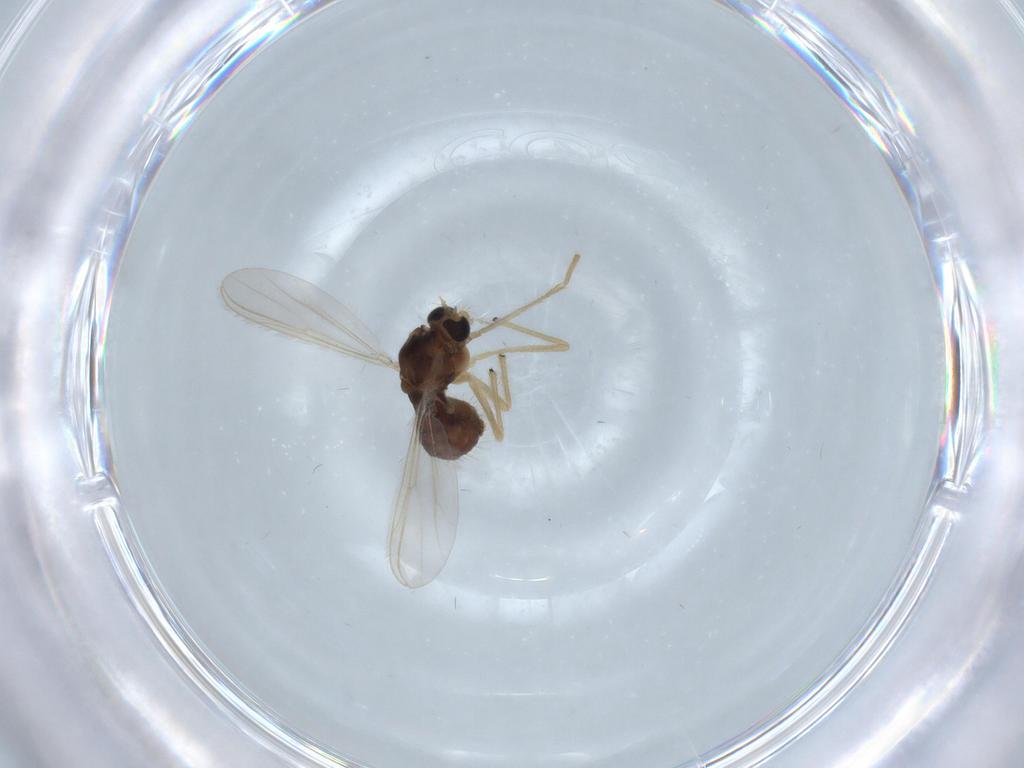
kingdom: Animalia
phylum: Arthropoda
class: Insecta
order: Diptera
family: Chironomidae
